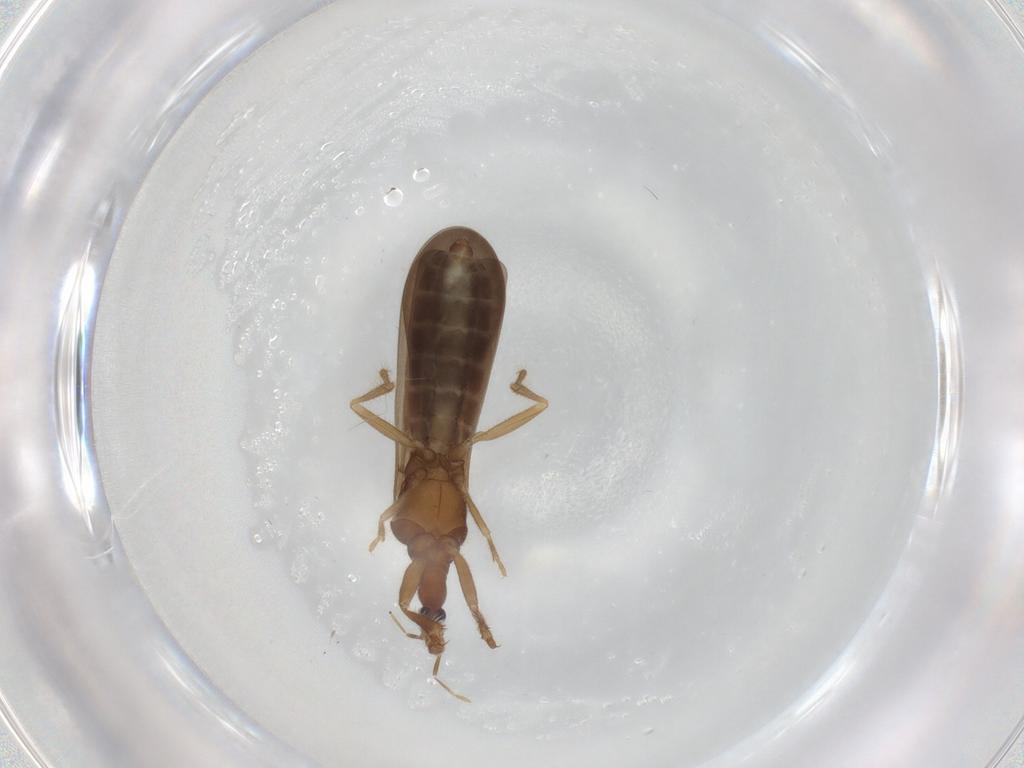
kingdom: Animalia
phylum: Arthropoda
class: Insecta
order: Hemiptera
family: Enicocephalidae
